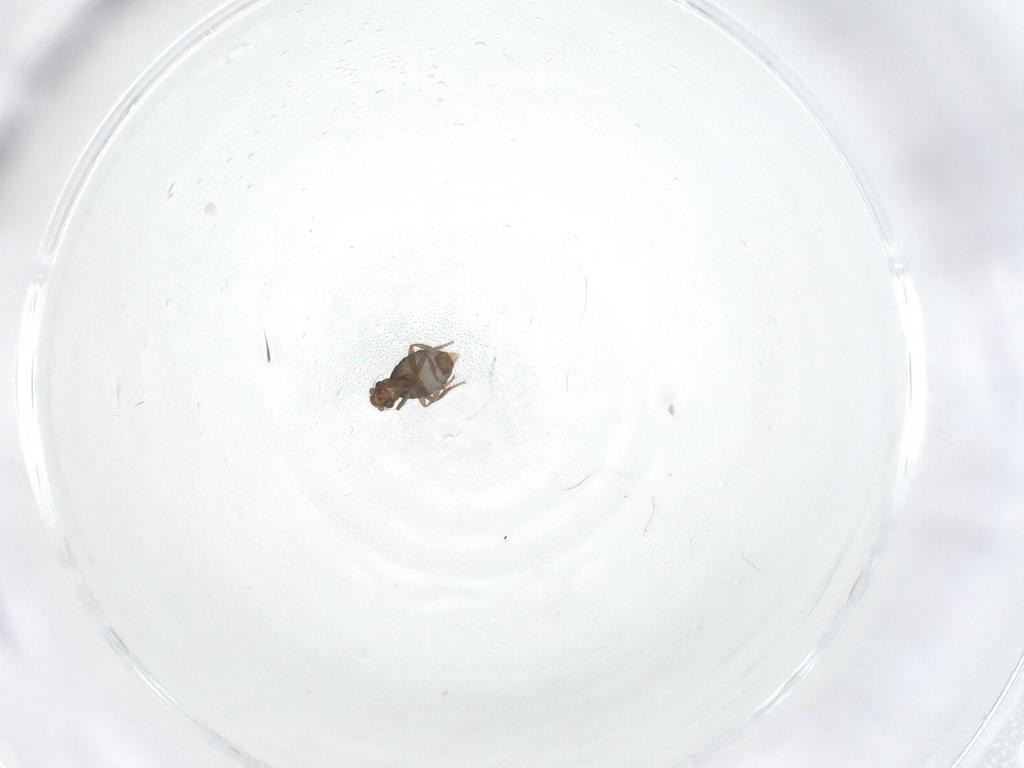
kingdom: Animalia
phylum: Arthropoda
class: Insecta
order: Diptera
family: Phoridae
